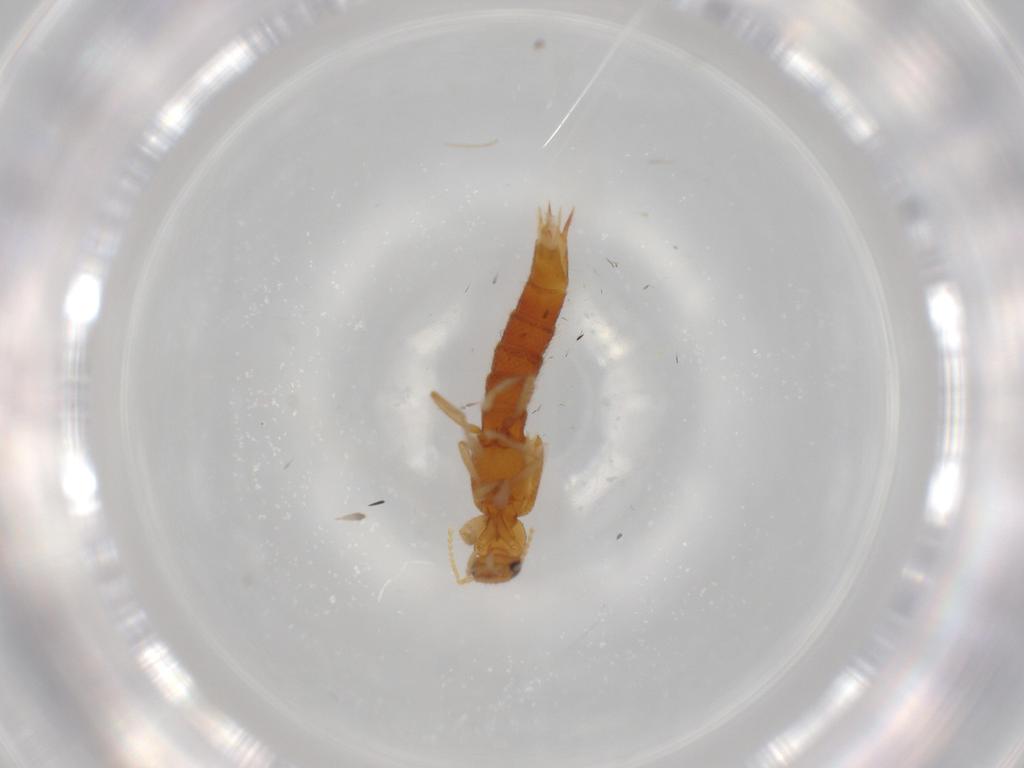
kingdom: Animalia
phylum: Arthropoda
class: Insecta
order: Coleoptera
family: Staphylinidae
